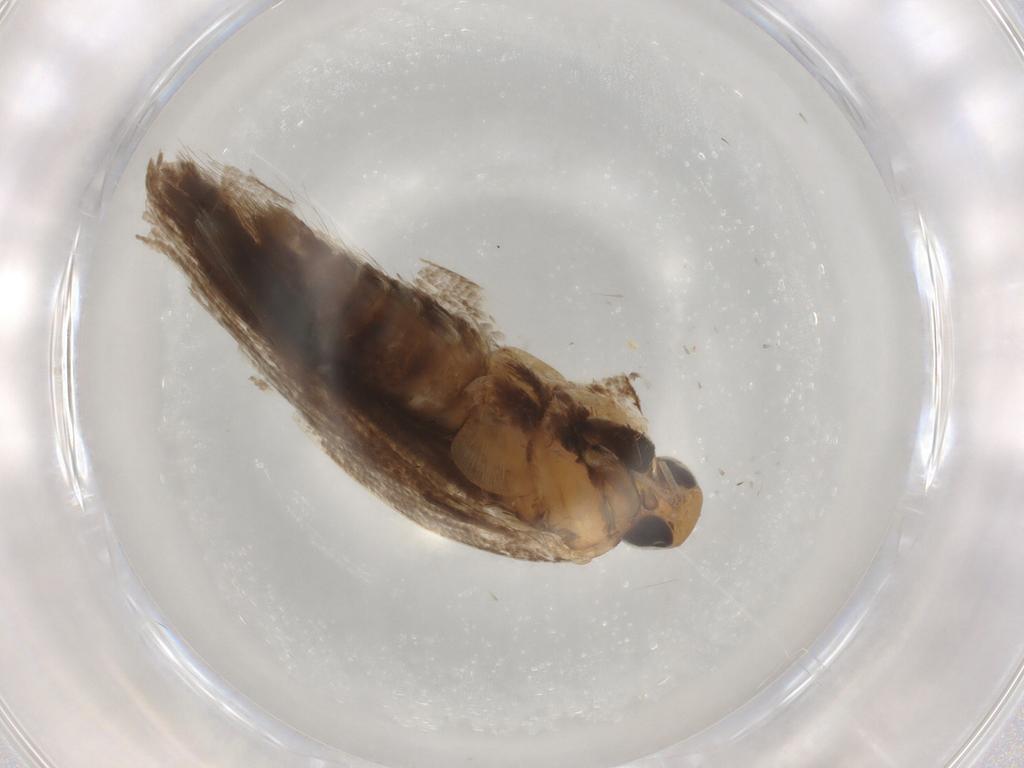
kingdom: Animalia
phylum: Arthropoda
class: Insecta
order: Lepidoptera
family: Gelechiidae
